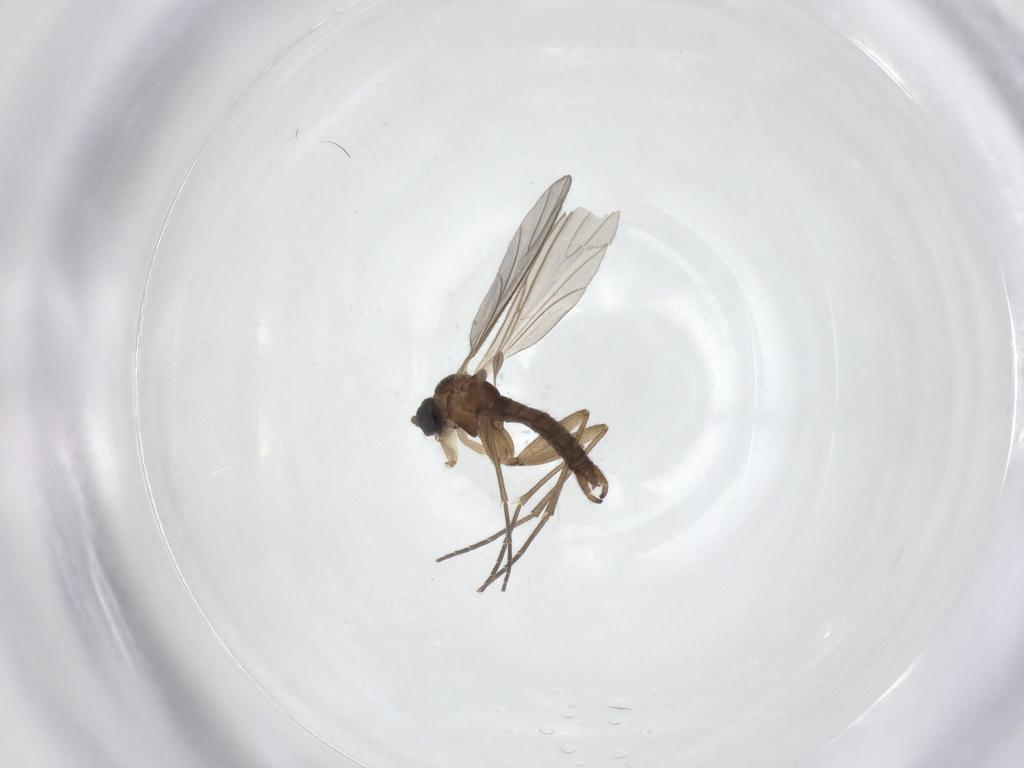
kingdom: Animalia
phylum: Arthropoda
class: Insecta
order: Diptera
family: Sciaridae
